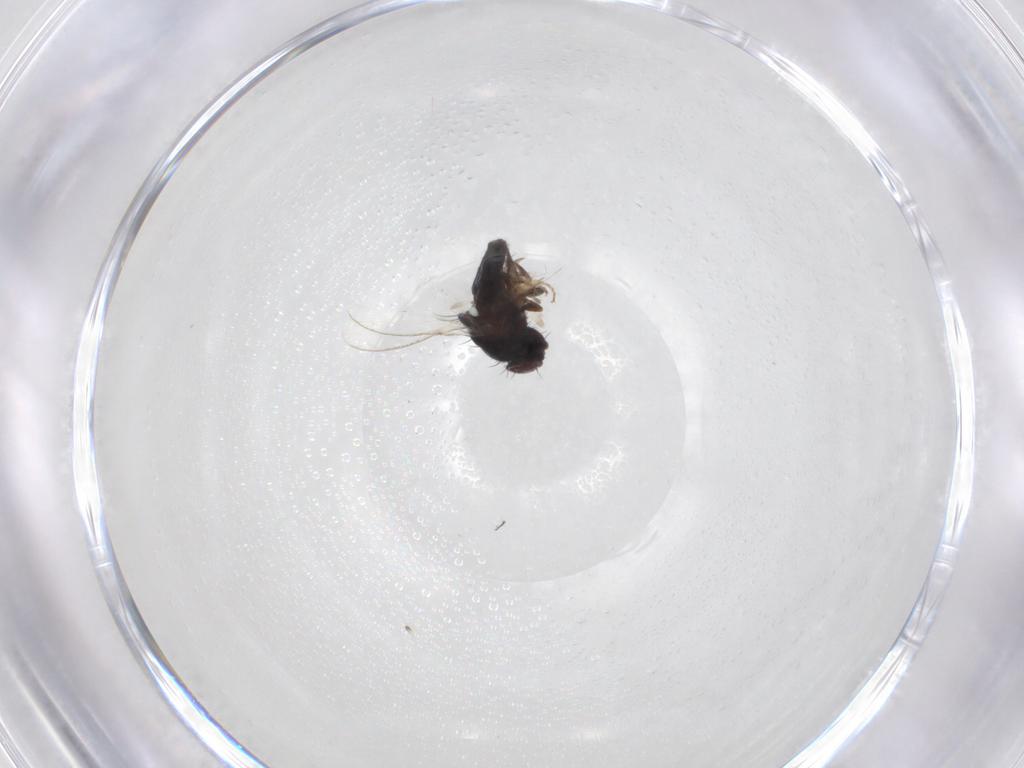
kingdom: Animalia
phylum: Arthropoda
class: Insecta
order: Diptera
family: Carnidae
